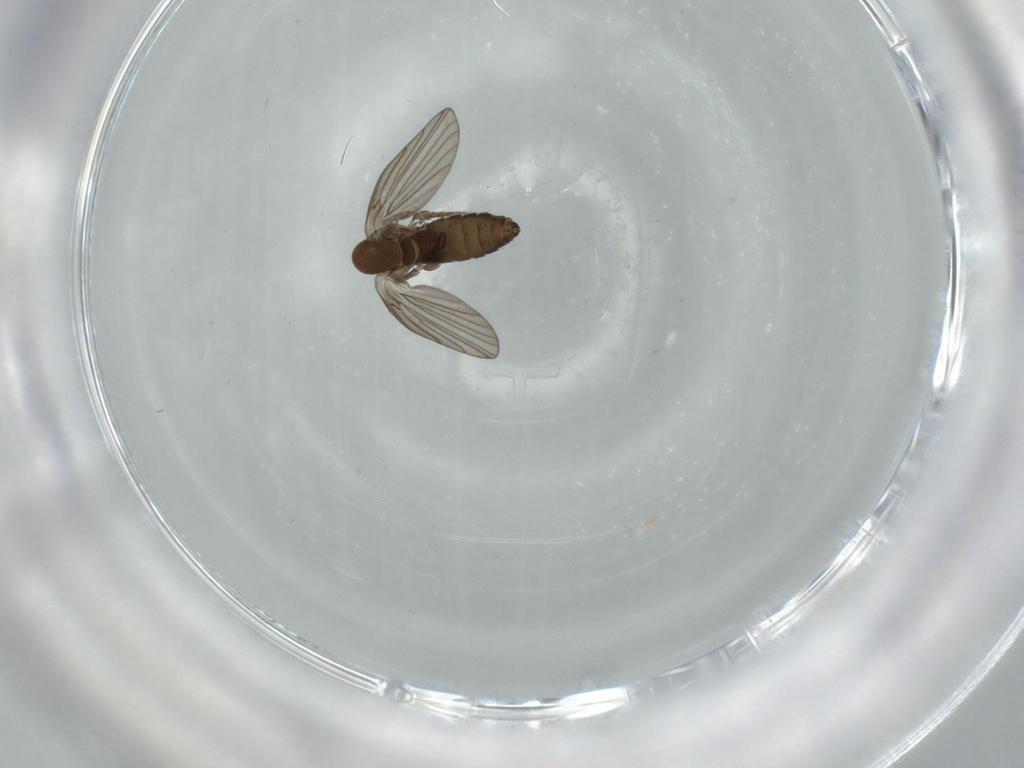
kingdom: Animalia
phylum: Arthropoda
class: Insecta
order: Diptera
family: Psychodidae
